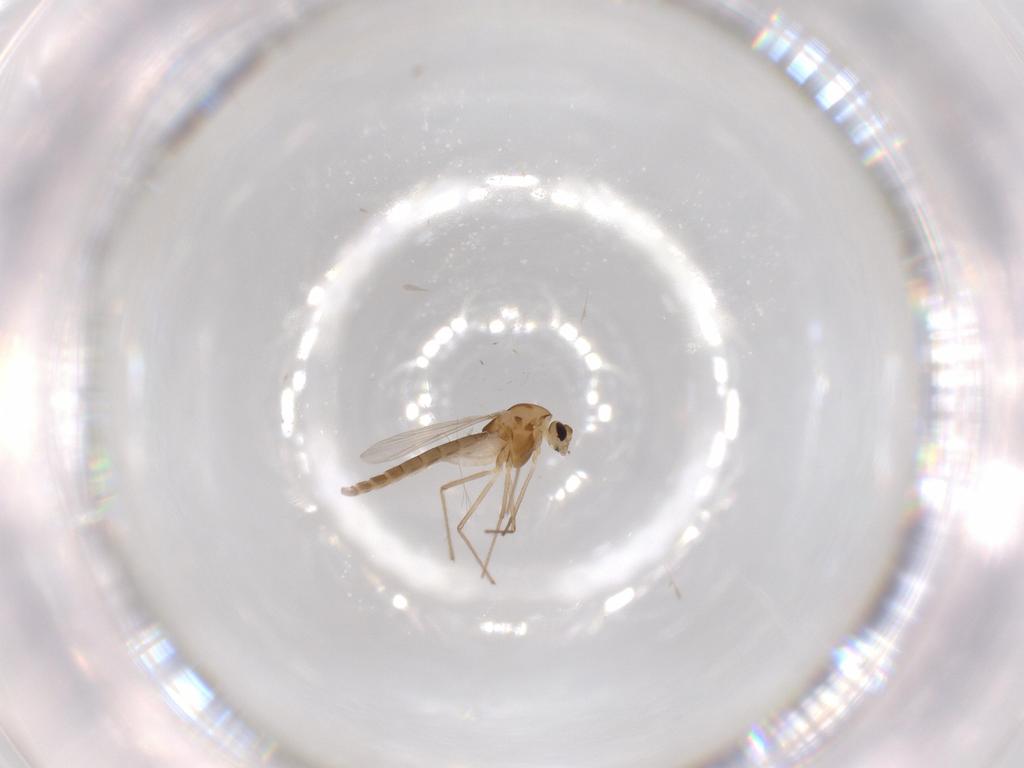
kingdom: Animalia
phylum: Arthropoda
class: Insecta
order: Diptera
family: Chironomidae
